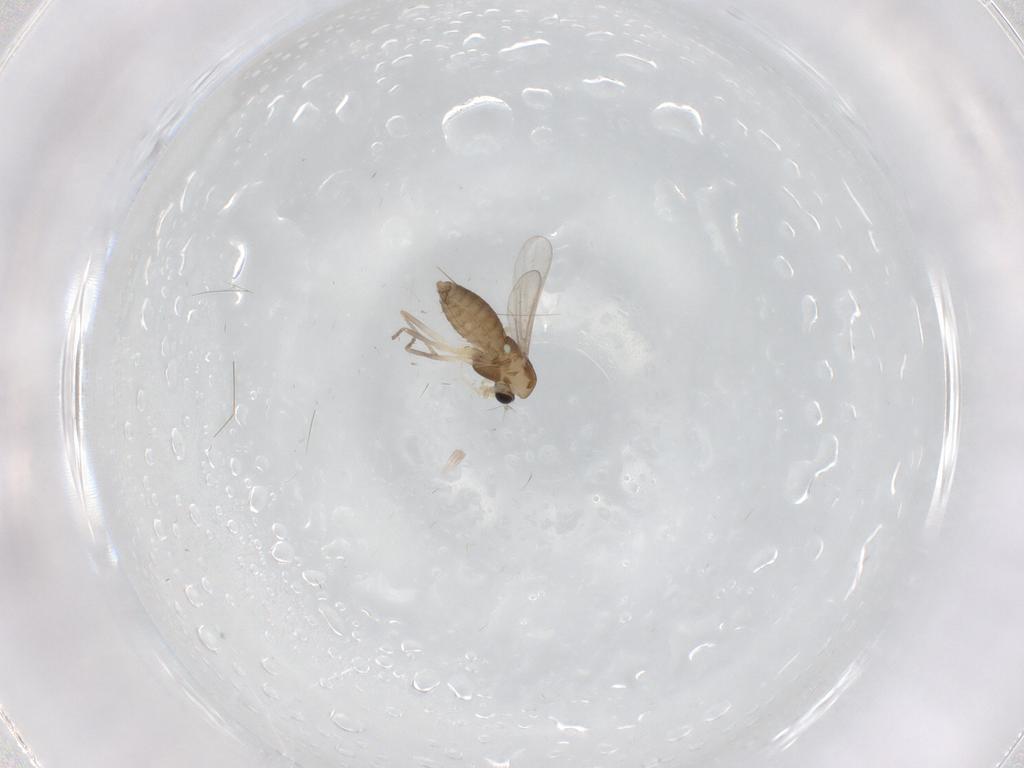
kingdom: Animalia
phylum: Arthropoda
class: Insecta
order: Diptera
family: Chironomidae
